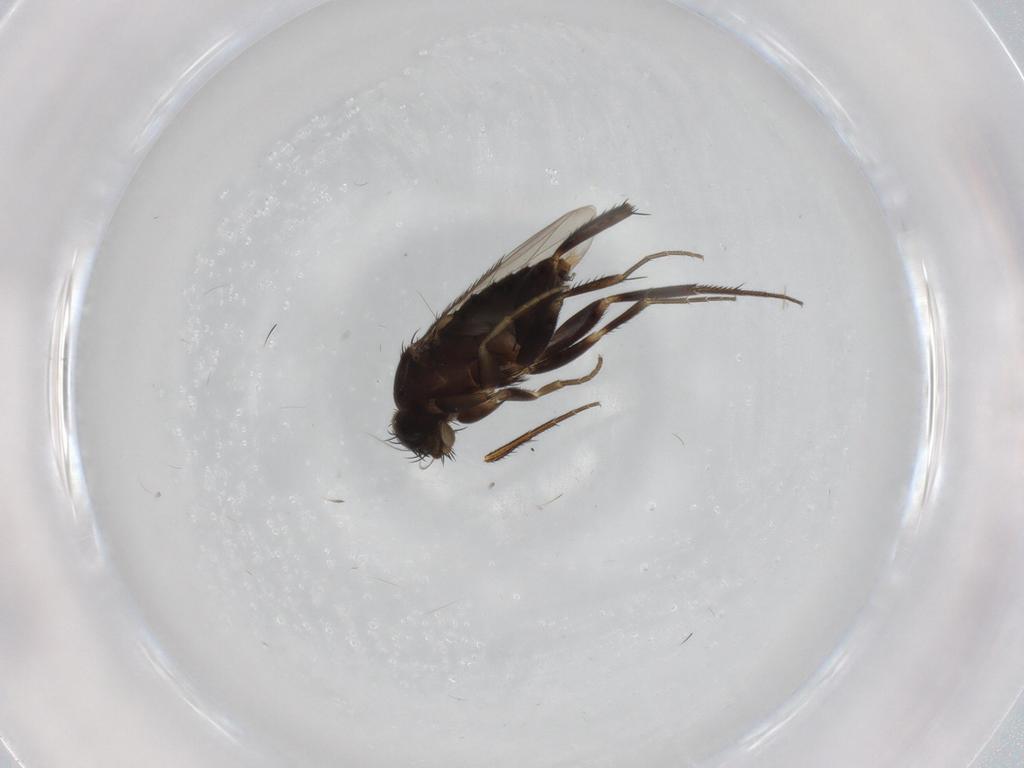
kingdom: Animalia
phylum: Arthropoda
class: Insecta
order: Diptera
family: Phoridae
